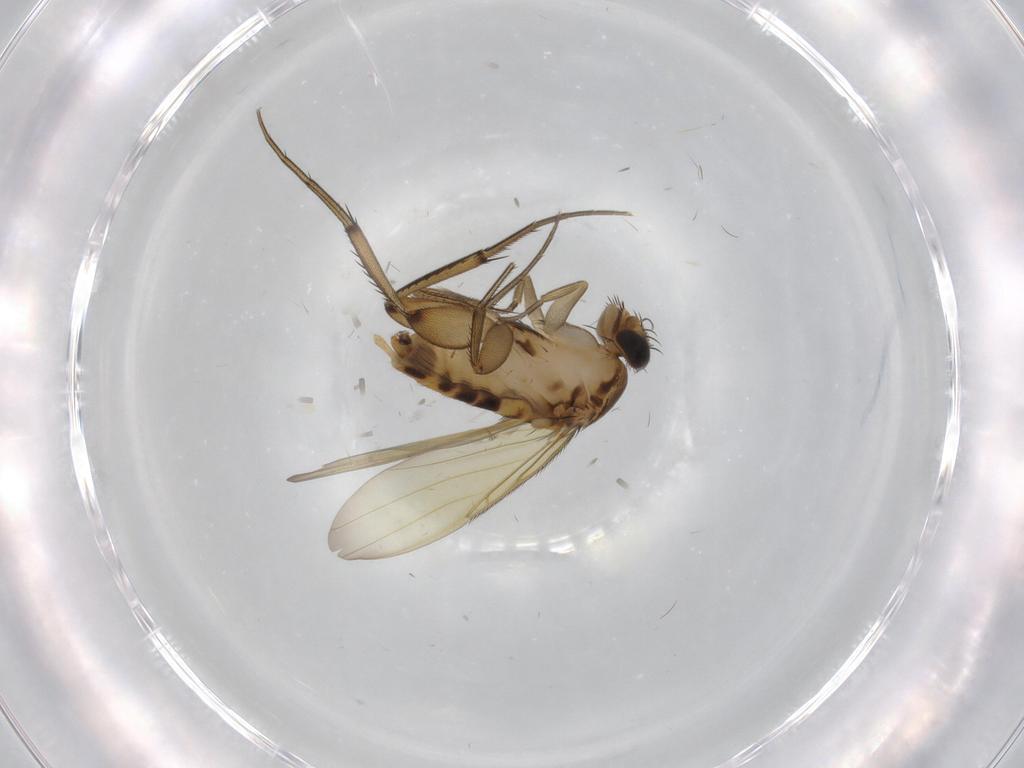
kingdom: Animalia
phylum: Arthropoda
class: Insecta
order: Diptera
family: Phoridae
